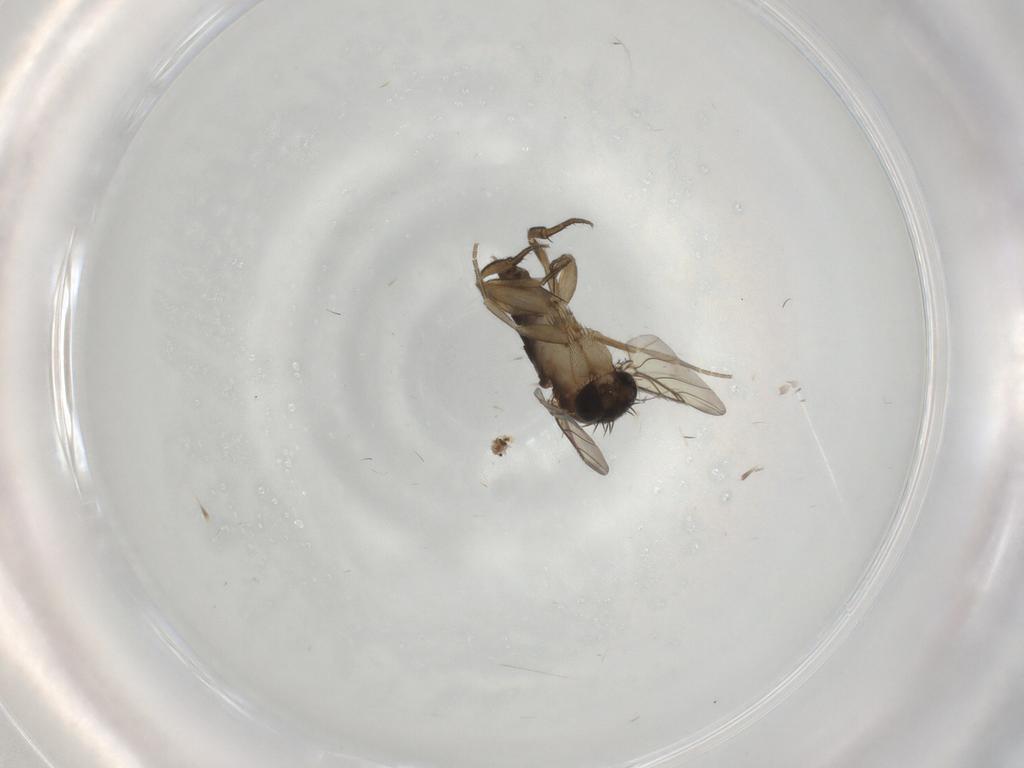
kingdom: Animalia
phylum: Arthropoda
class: Insecta
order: Diptera
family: Phoridae
